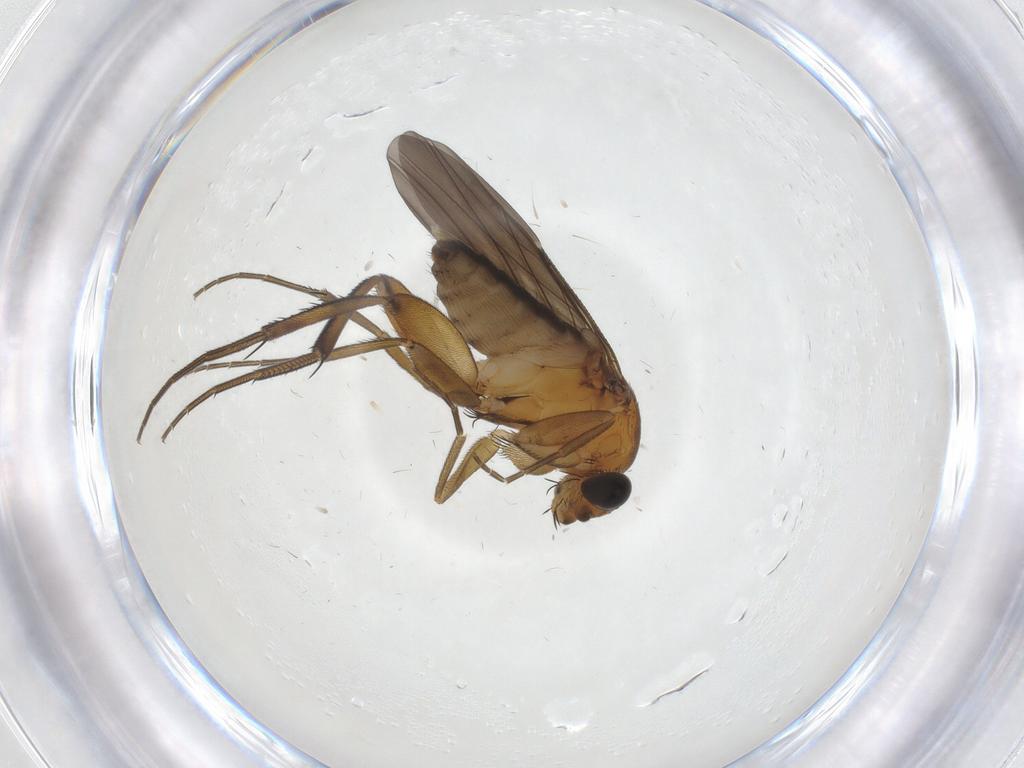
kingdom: Animalia
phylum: Arthropoda
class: Insecta
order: Diptera
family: Phoridae
